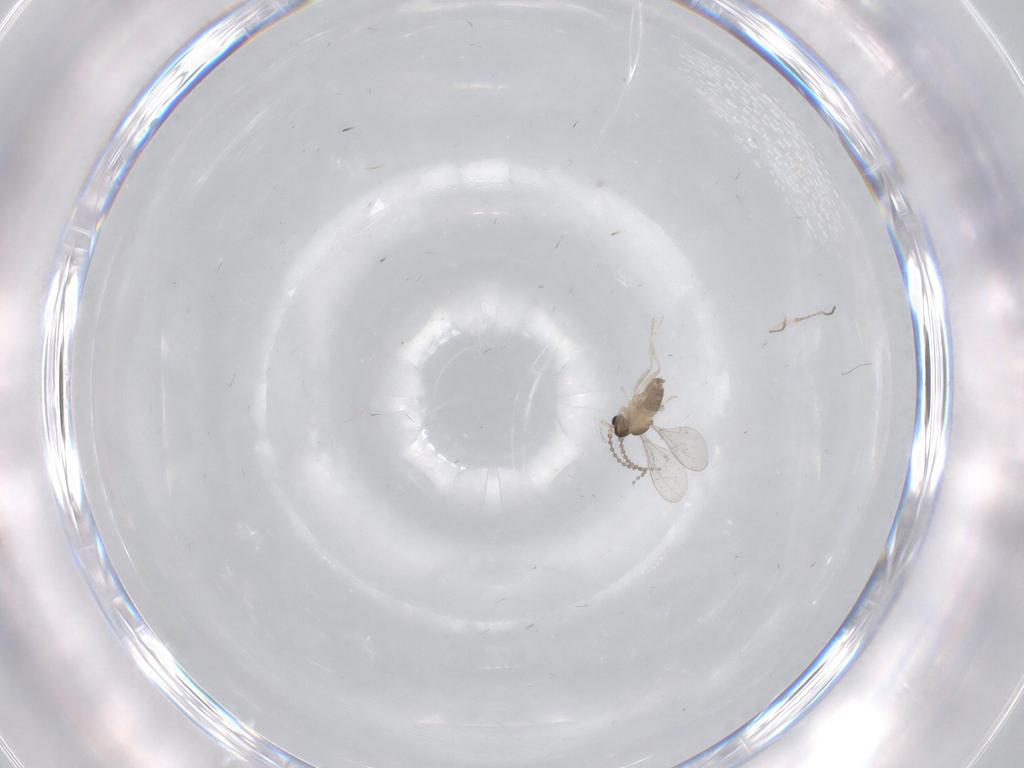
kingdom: Animalia
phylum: Arthropoda
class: Insecta
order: Diptera
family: Cecidomyiidae
